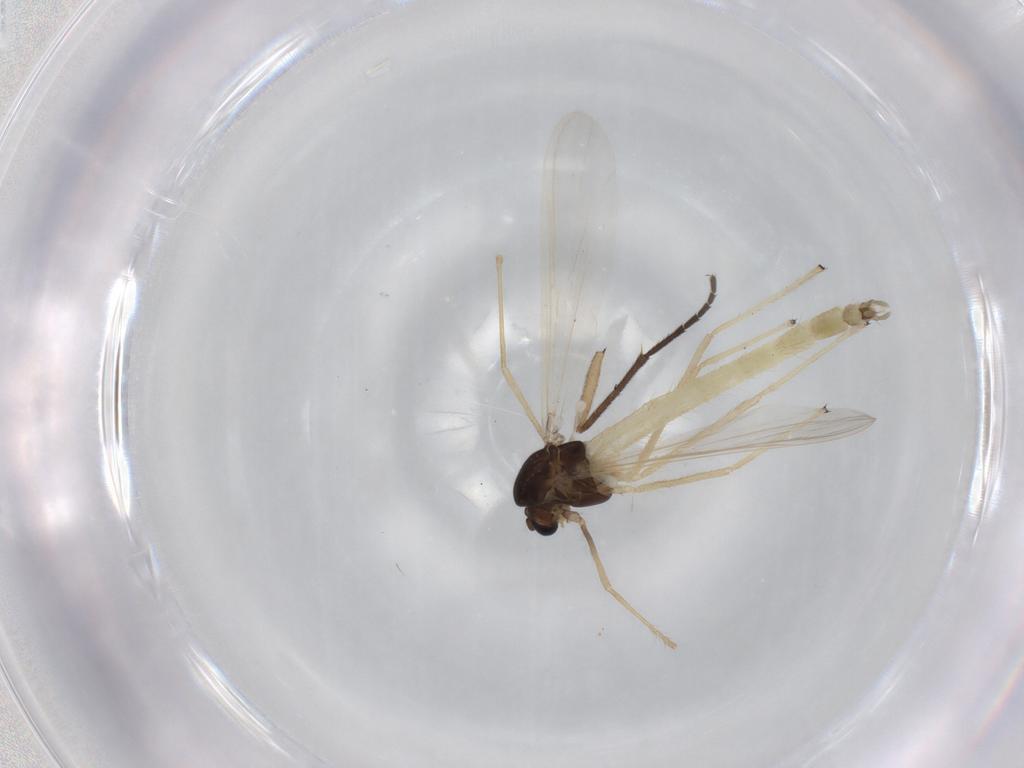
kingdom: Animalia
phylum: Arthropoda
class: Insecta
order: Diptera
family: Chironomidae
